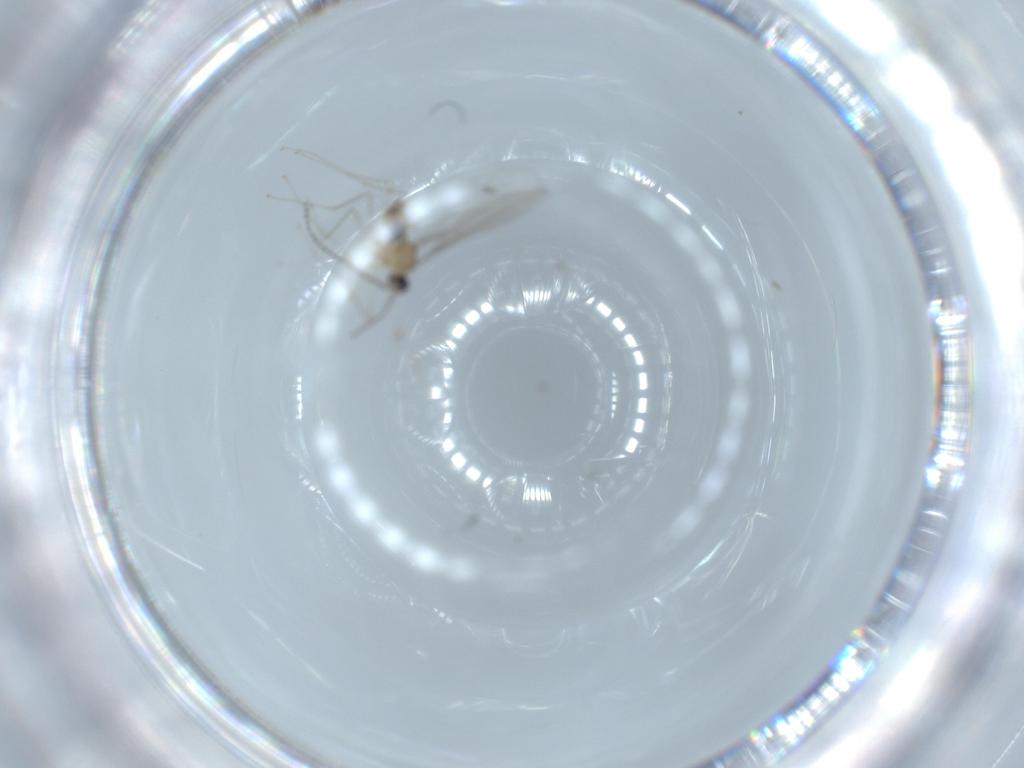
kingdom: Animalia
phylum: Arthropoda
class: Insecta
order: Diptera
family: Cecidomyiidae
